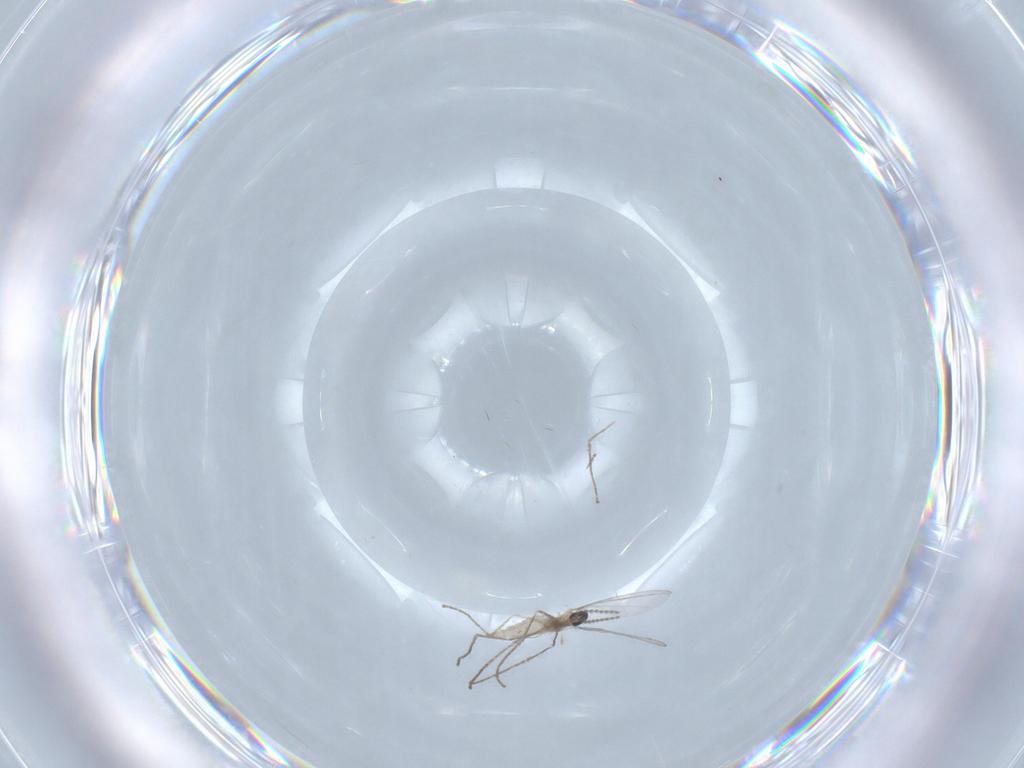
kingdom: Animalia
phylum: Arthropoda
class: Insecta
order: Diptera
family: Cecidomyiidae
